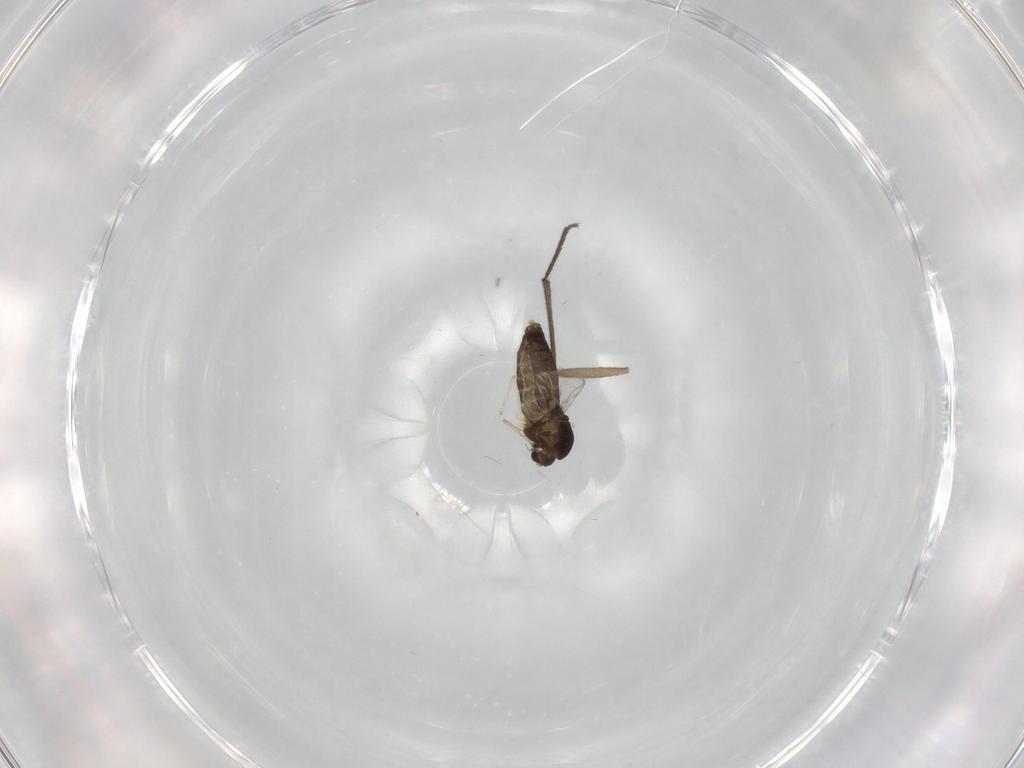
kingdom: Animalia
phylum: Arthropoda
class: Insecta
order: Diptera
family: Chironomidae
